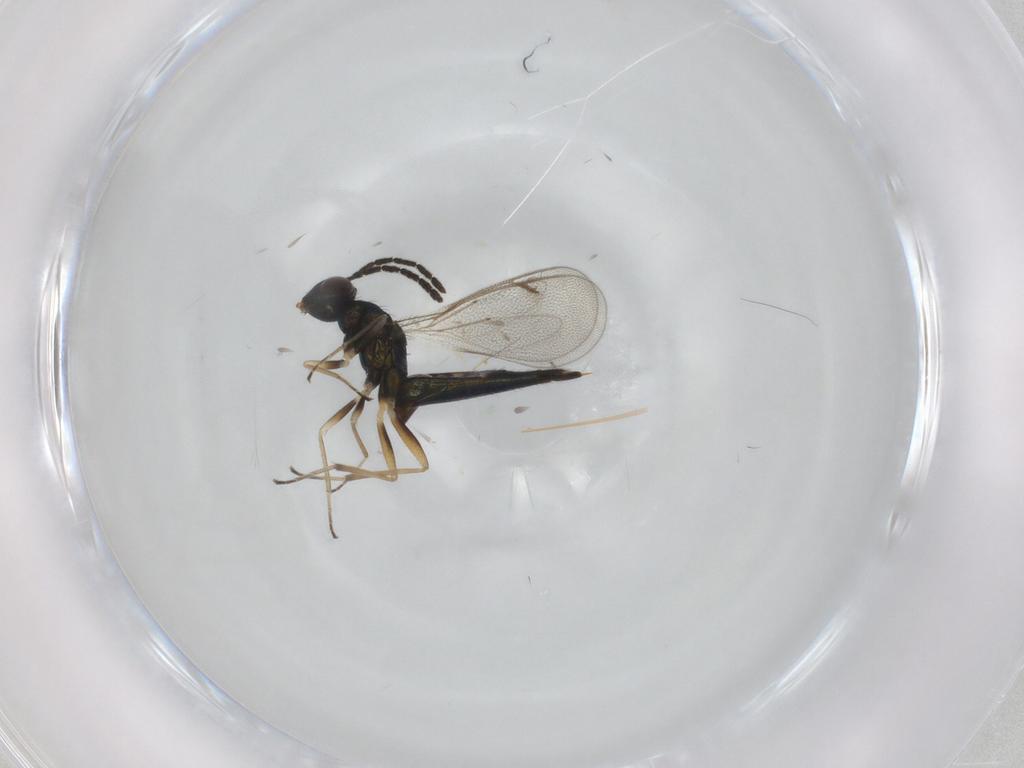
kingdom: Animalia
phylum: Arthropoda
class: Insecta
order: Hymenoptera
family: Eulophidae
